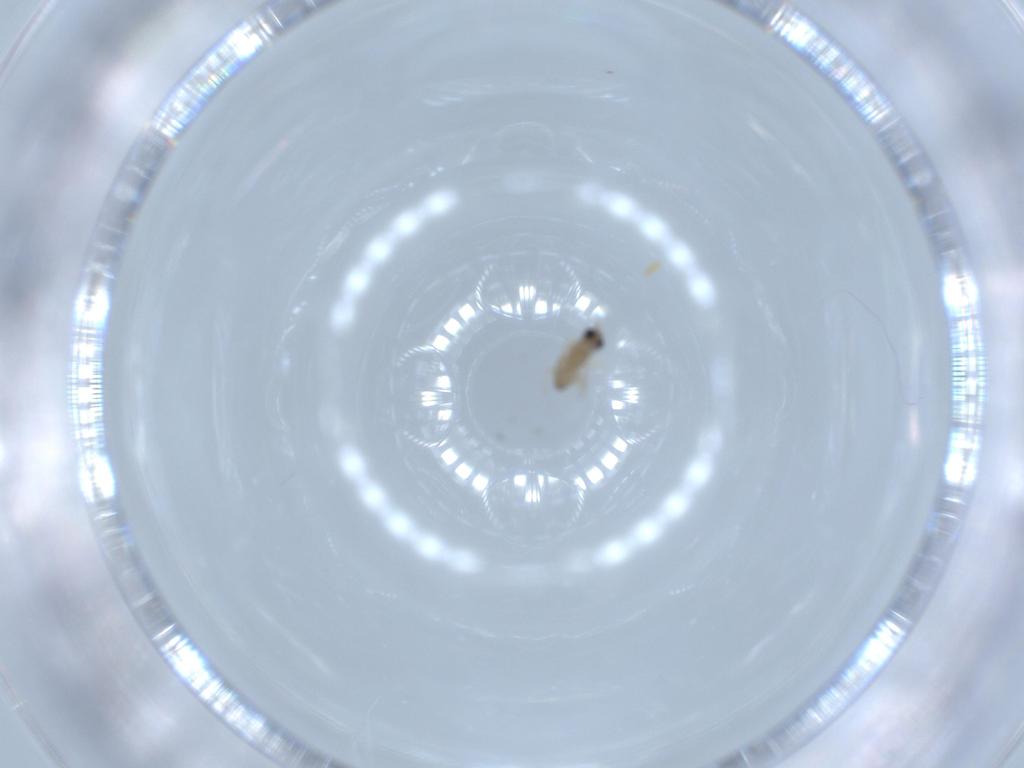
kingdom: Animalia
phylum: Arthropoda
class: Insecta
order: Diptera
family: Cecidomyiidae
